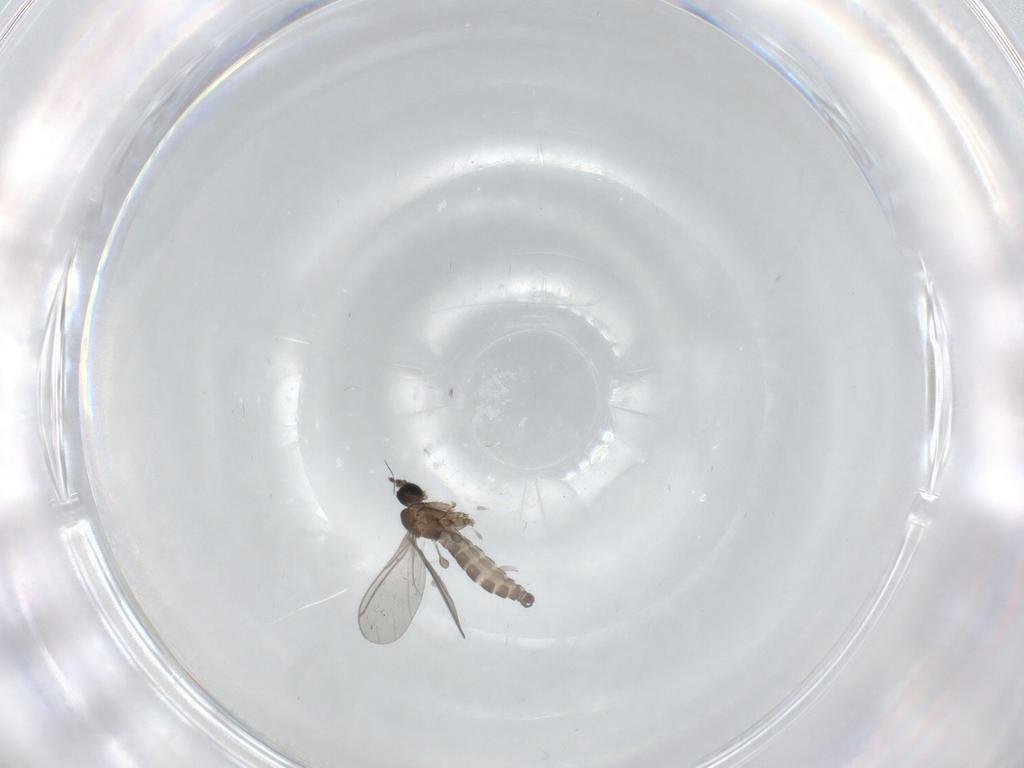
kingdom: Animalia
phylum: Arthropoda
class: Insecta
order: Diptera
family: Sciaridae
